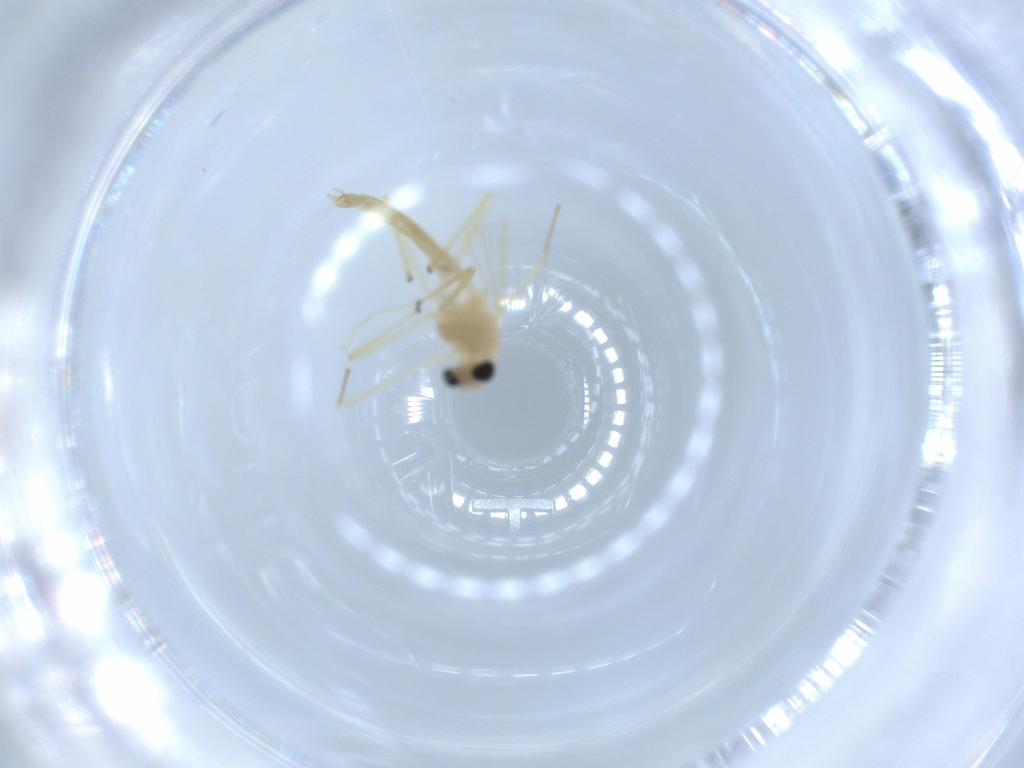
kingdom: Animalia
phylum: Arthropoda
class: Insecta
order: Diptera
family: Chironomidae
